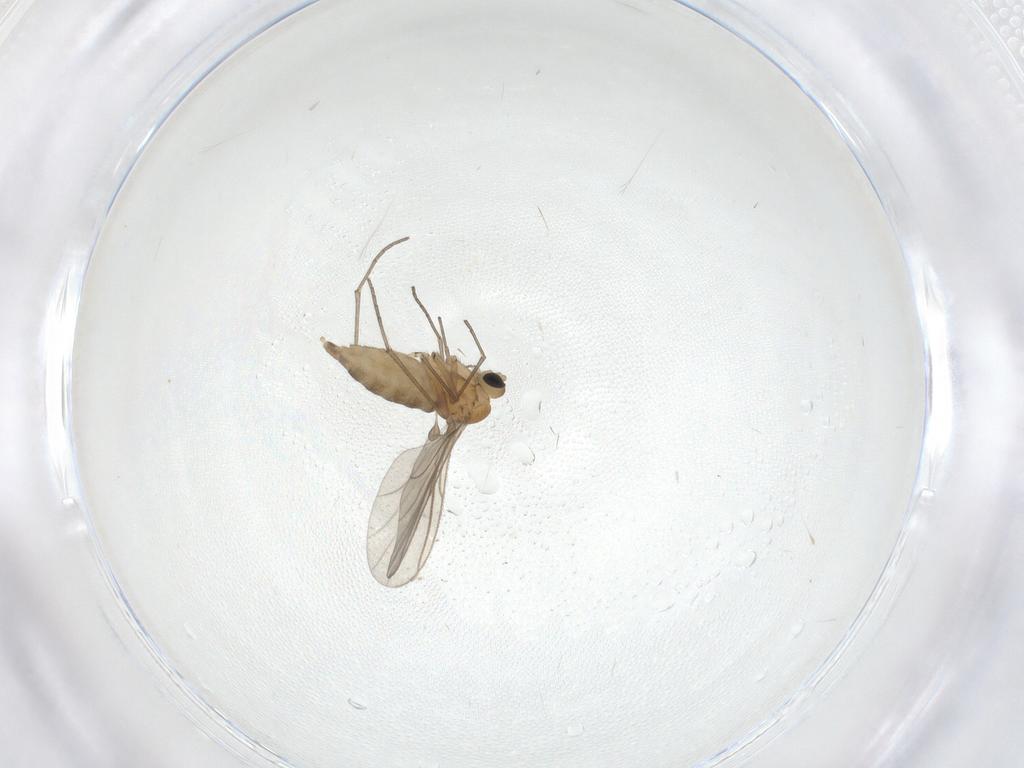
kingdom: Animalia
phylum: Arthropoda
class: Insecta
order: Diptera
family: Sciaridae
